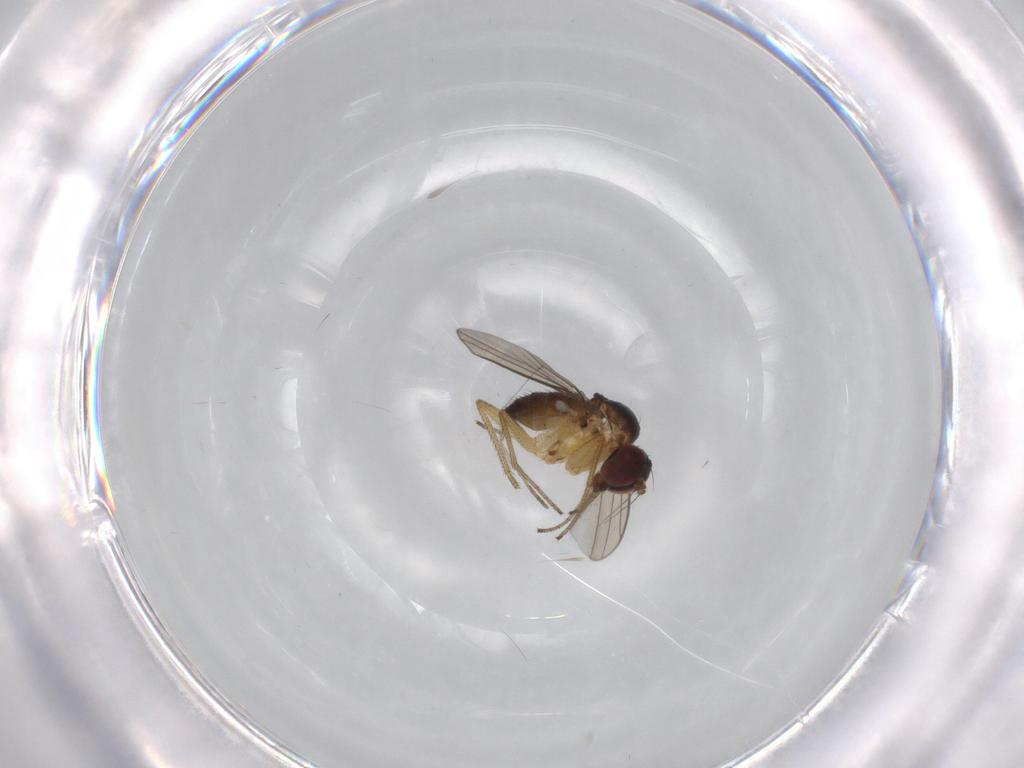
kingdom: Animalia
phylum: Arthropoda
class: Insecta
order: Diptera
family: Dolichopodidae
